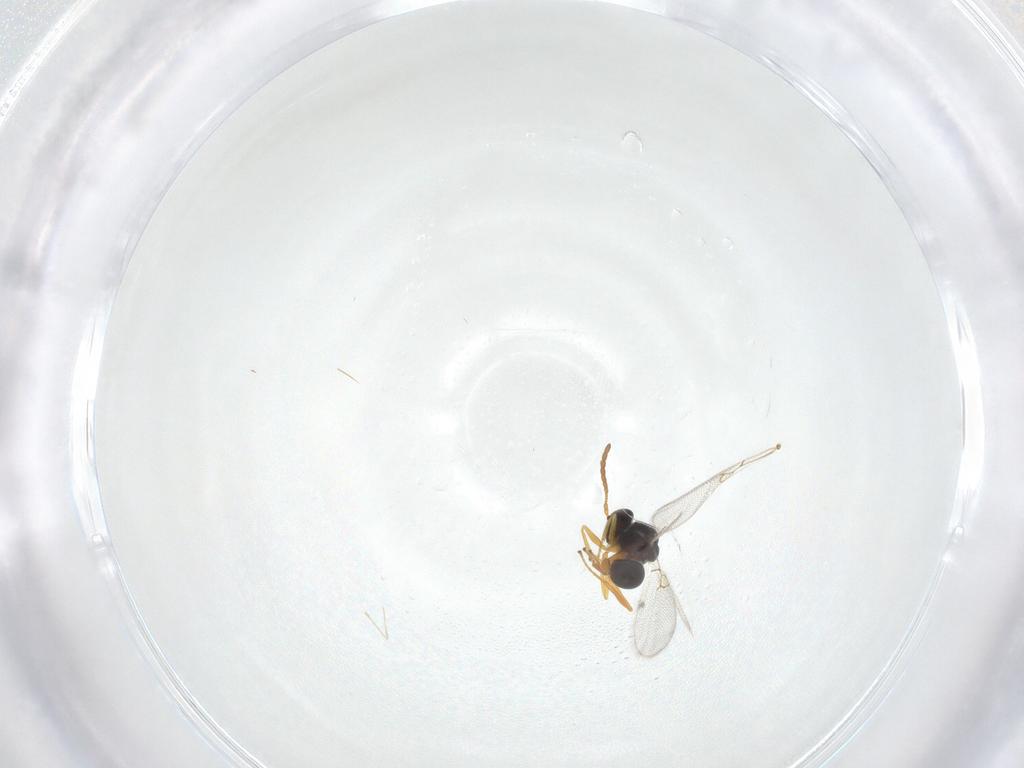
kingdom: Animalia
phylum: Arthropoda
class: Insecta
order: Hymenoptera
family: Figitidae
